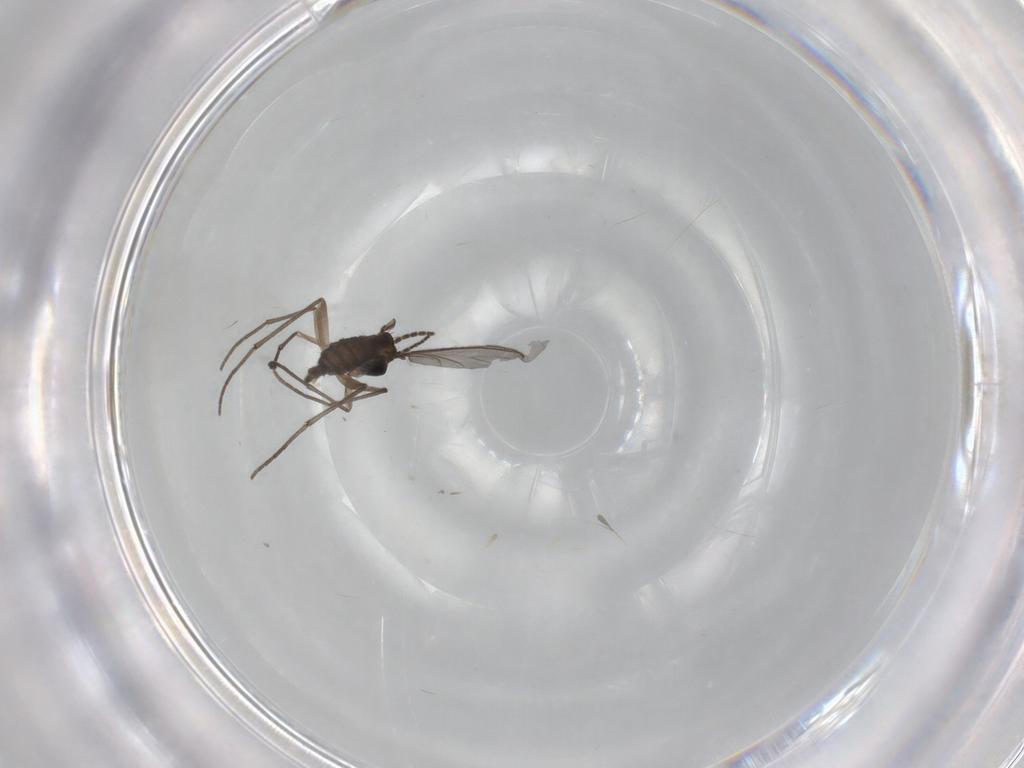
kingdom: Animalia
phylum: Arthropoda
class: Insecta
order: Diptera
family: Sciaridae
